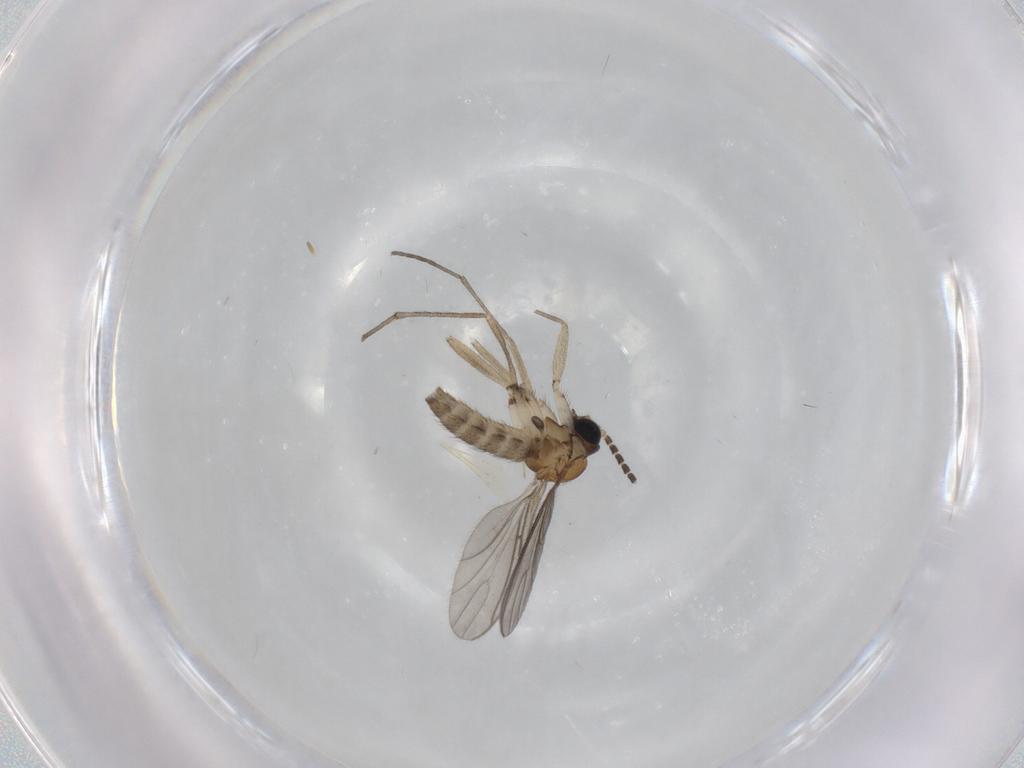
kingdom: Animalia
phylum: Arthropoda
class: Insecta
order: Diptera
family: Sciaridae
